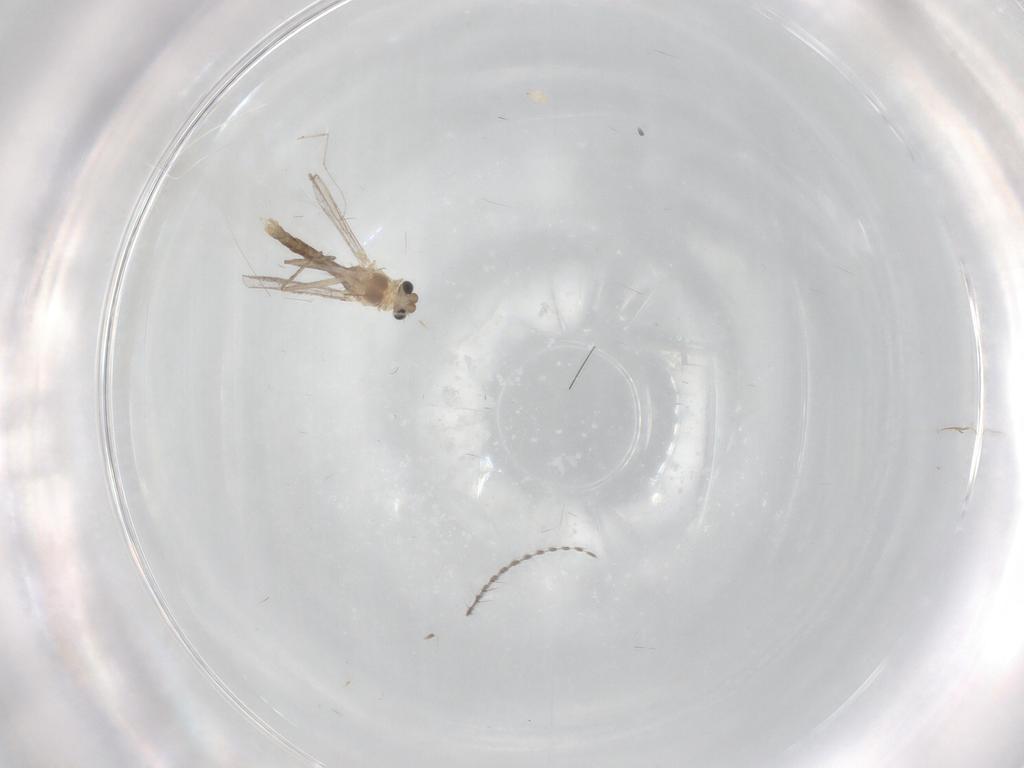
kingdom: Animalia
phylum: Arthropoda
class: Insecta
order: Diptera
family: Chironomidae
